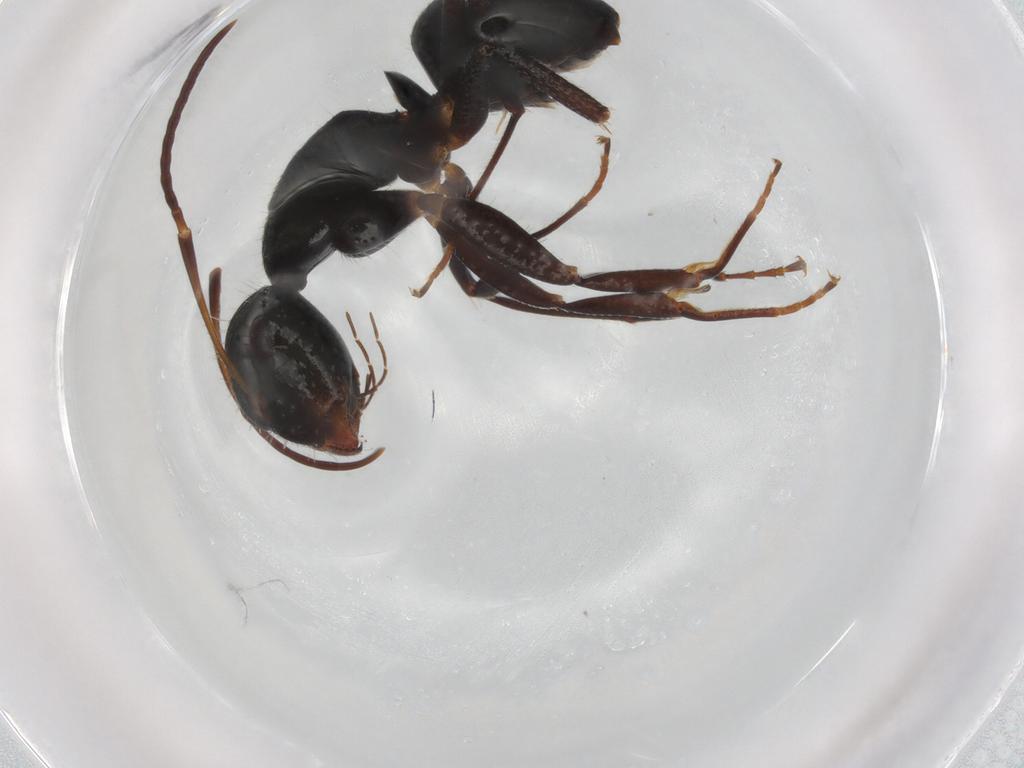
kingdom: Animalia
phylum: Arthropoda
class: Insecta
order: Hymenoptera
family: Formicidae
